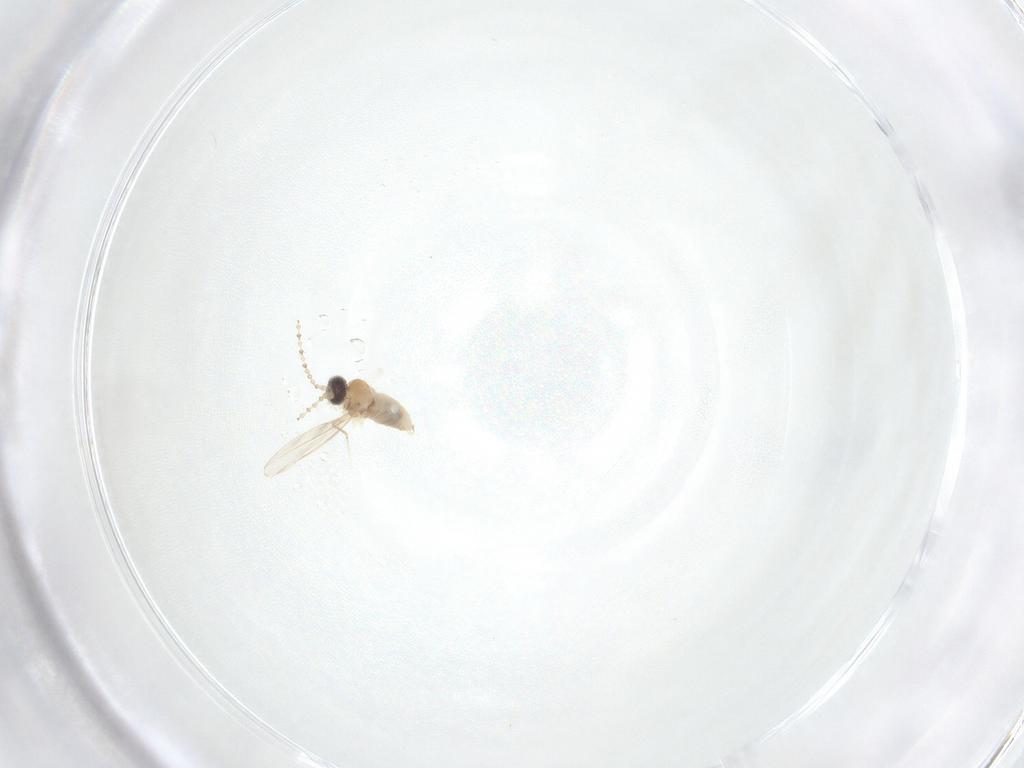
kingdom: Animalia
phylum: Arthropoda
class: Insecta
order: Diptera
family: Cecidomyiidae
